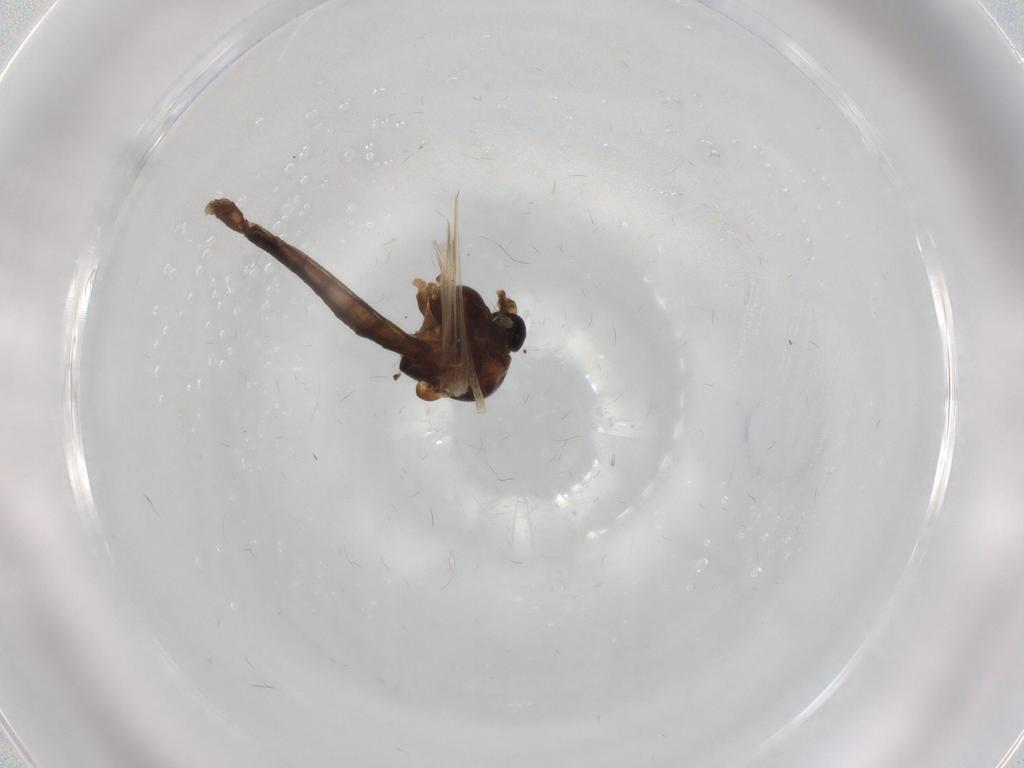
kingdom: Animalia
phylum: Arthropoda
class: Insecta
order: Diptera
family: Chironomidae
